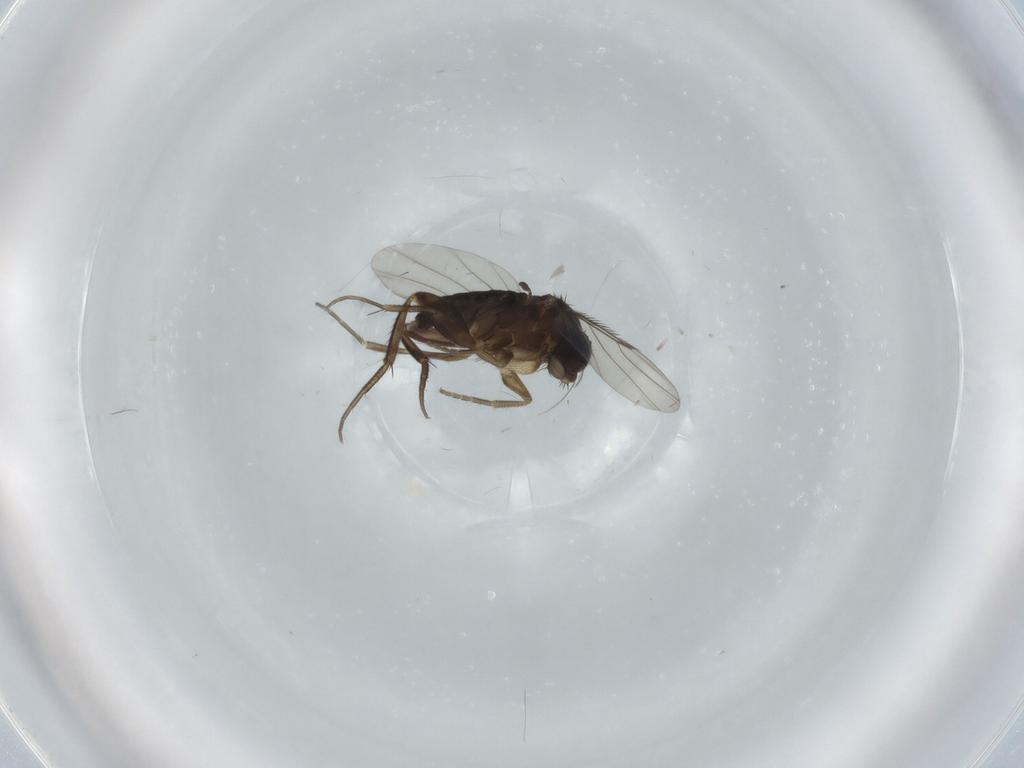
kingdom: Animalia
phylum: Arthropoda
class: Insecta
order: Diptera
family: Phoridae
